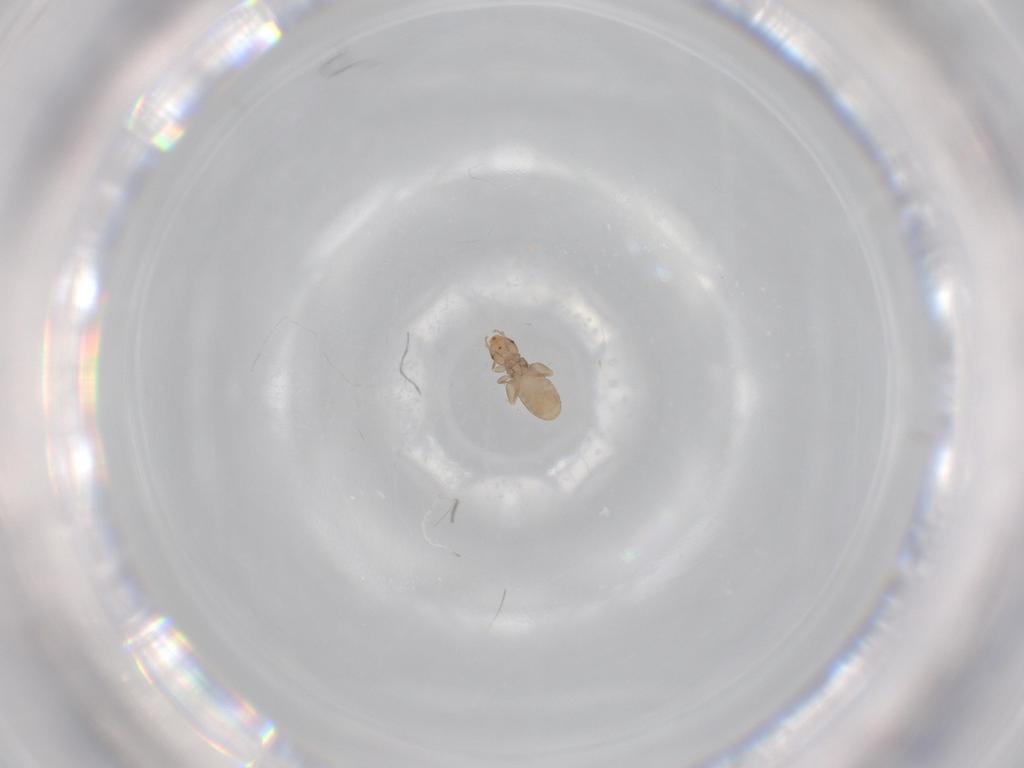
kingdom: Animalia
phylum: Arthropoda
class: Insecta
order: Psocodea
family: Liposcelididae
